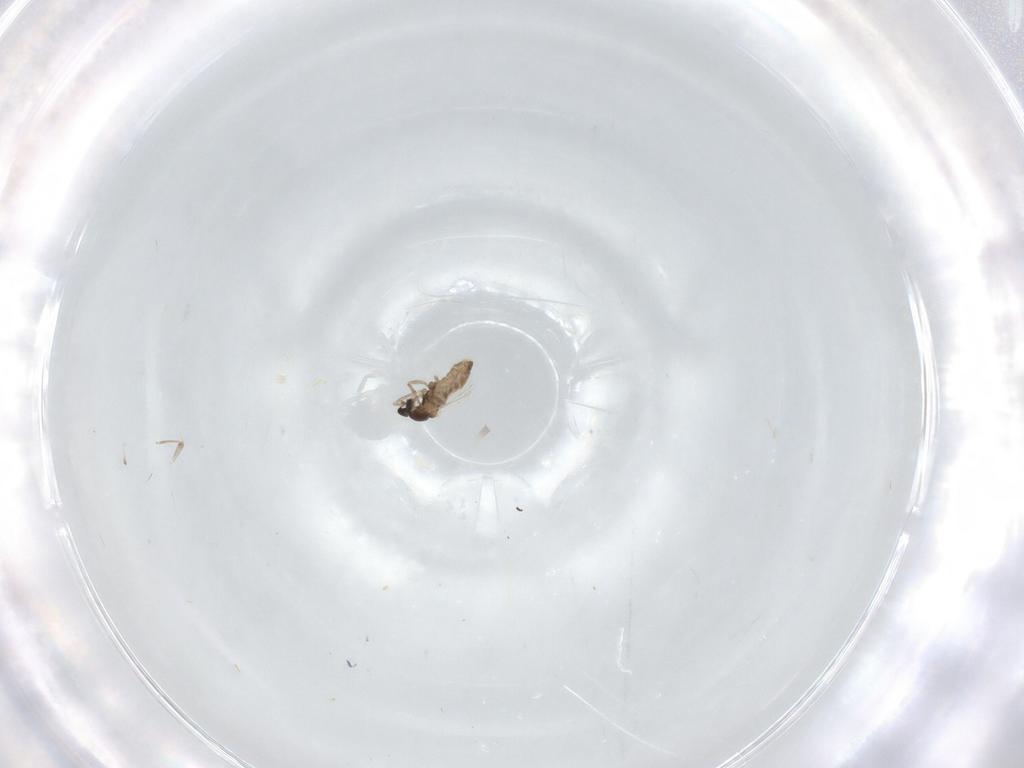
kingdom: Animalia
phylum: Arthropoda
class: Insecta
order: Diptera
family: Cecidomyiidae
